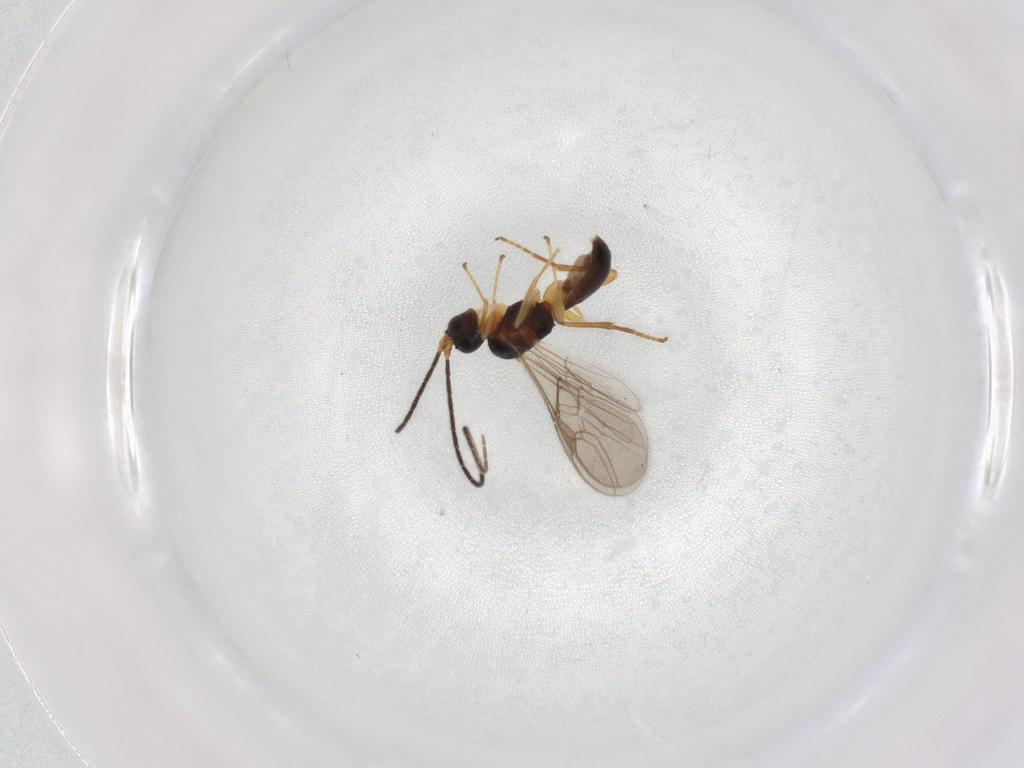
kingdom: Animalia
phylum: Arthropoda
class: Insecta
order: Hymenoptera
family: Braconidae
